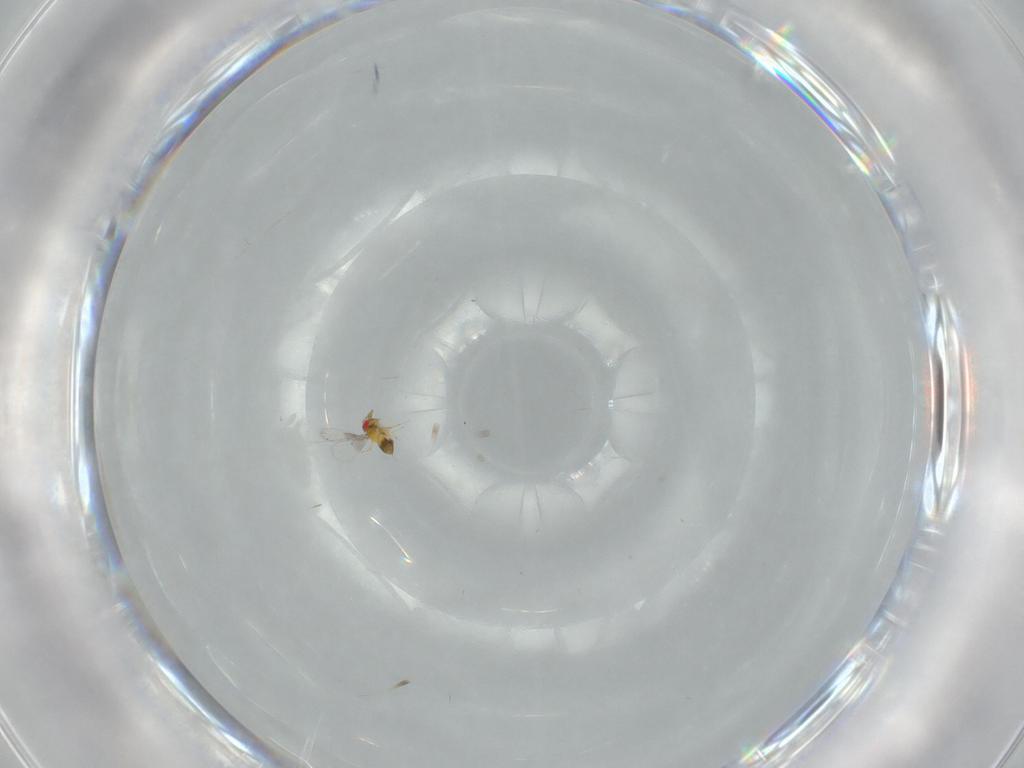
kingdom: Animalia
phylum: Arthropoda
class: Insecta
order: Hymenoptera
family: Trichogrammatidae
